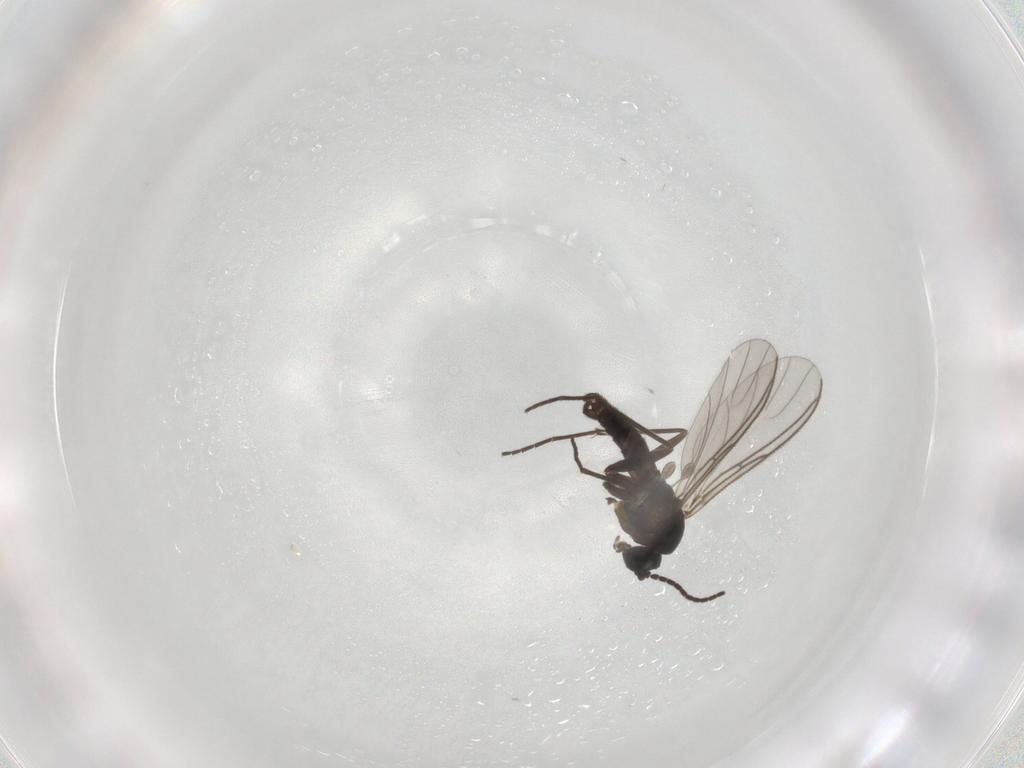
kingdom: Animalia
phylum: Arthropoda
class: Insecta
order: Diptera
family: Sciaridae
